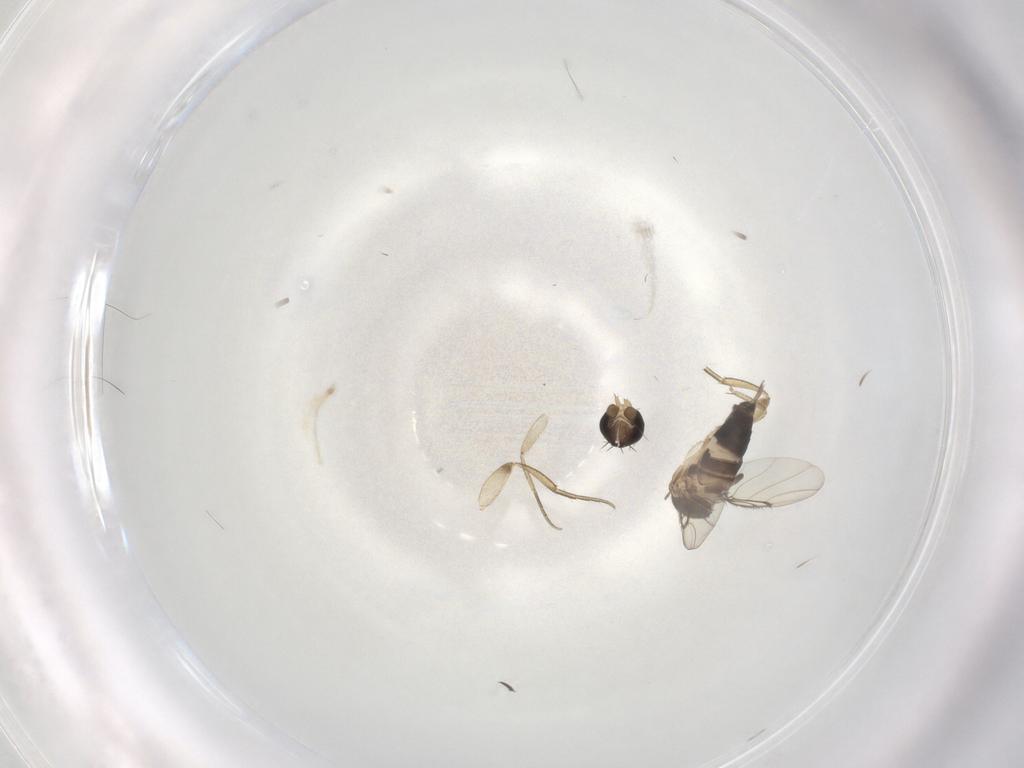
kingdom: Animalia
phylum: Arthropoda
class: Insecta
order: Diptera
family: Phoridae
